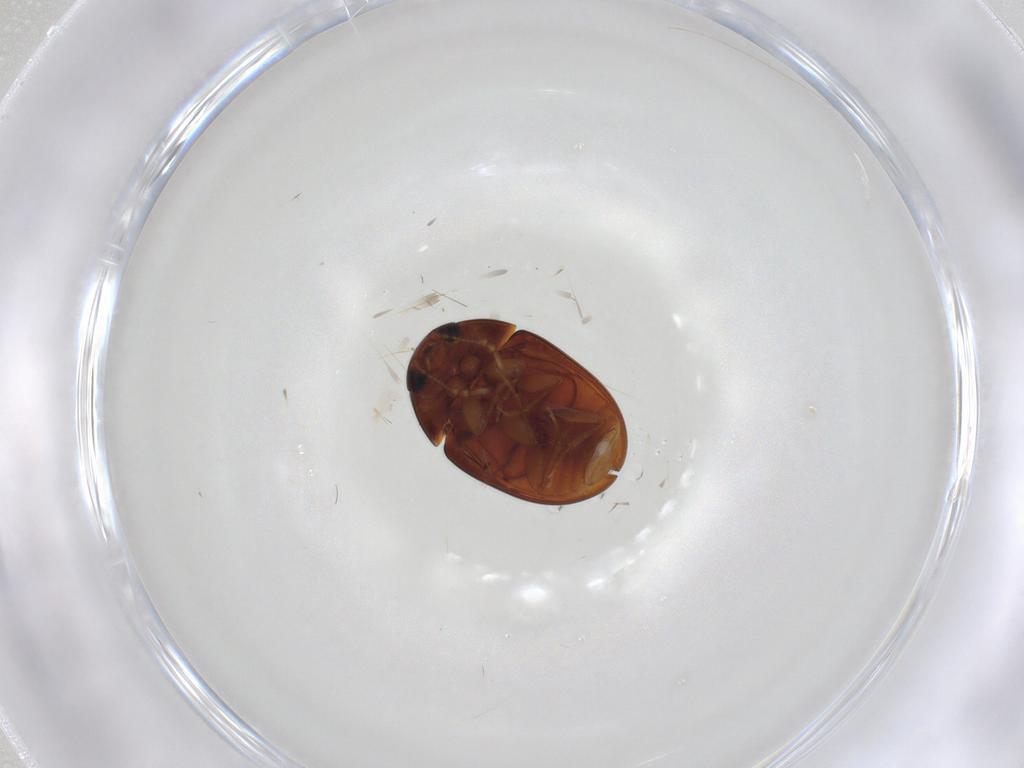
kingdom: Animalia
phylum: Arthropoda
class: Insecta
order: Coleoptera
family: Phalacridae
